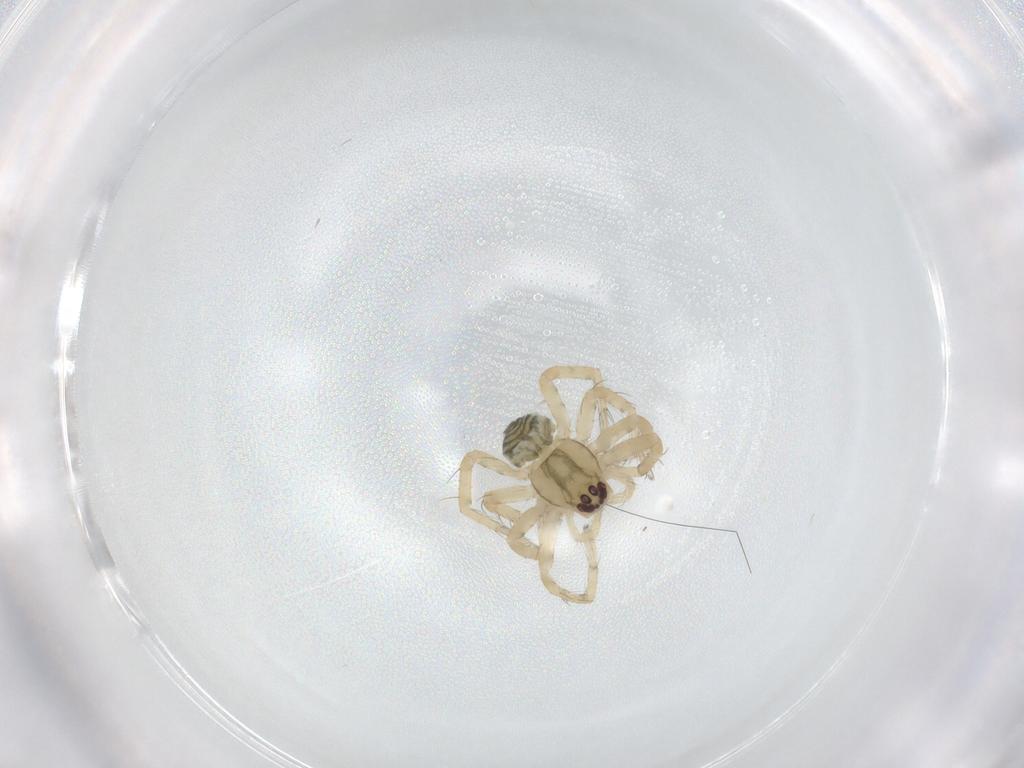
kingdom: Animalia
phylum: Arthropoda
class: Arachnida
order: Araneae
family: Amaurobiidae
